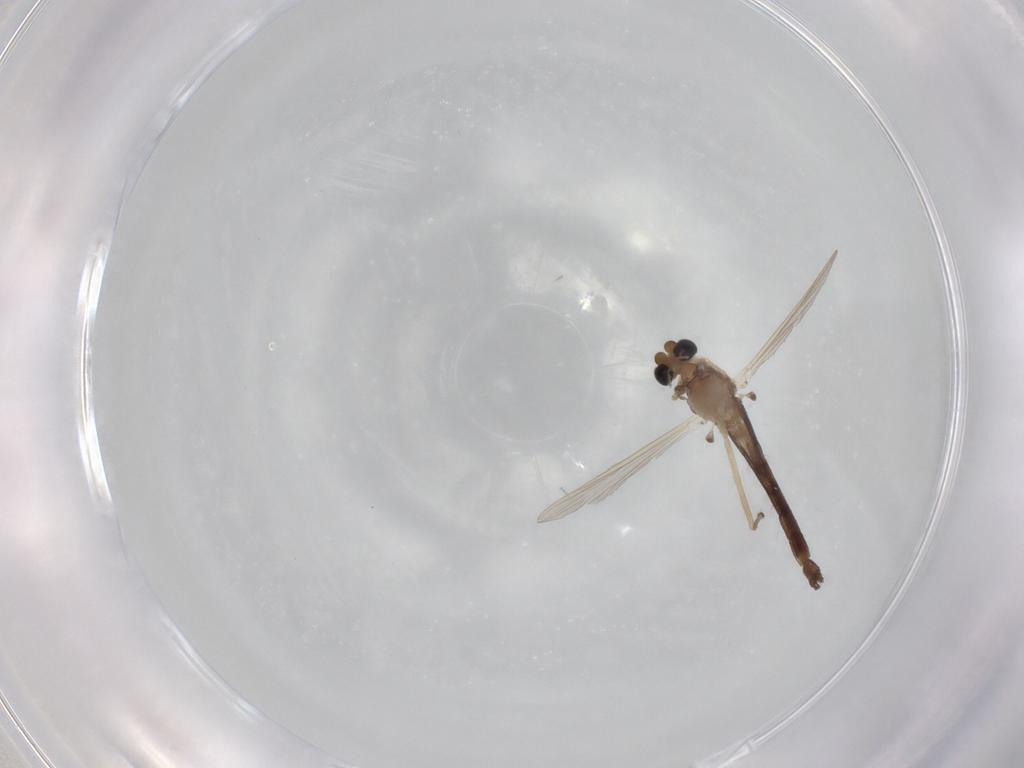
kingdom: Animalia
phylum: Arthropoda
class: Insecta
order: Diptera
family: Chironomidae
